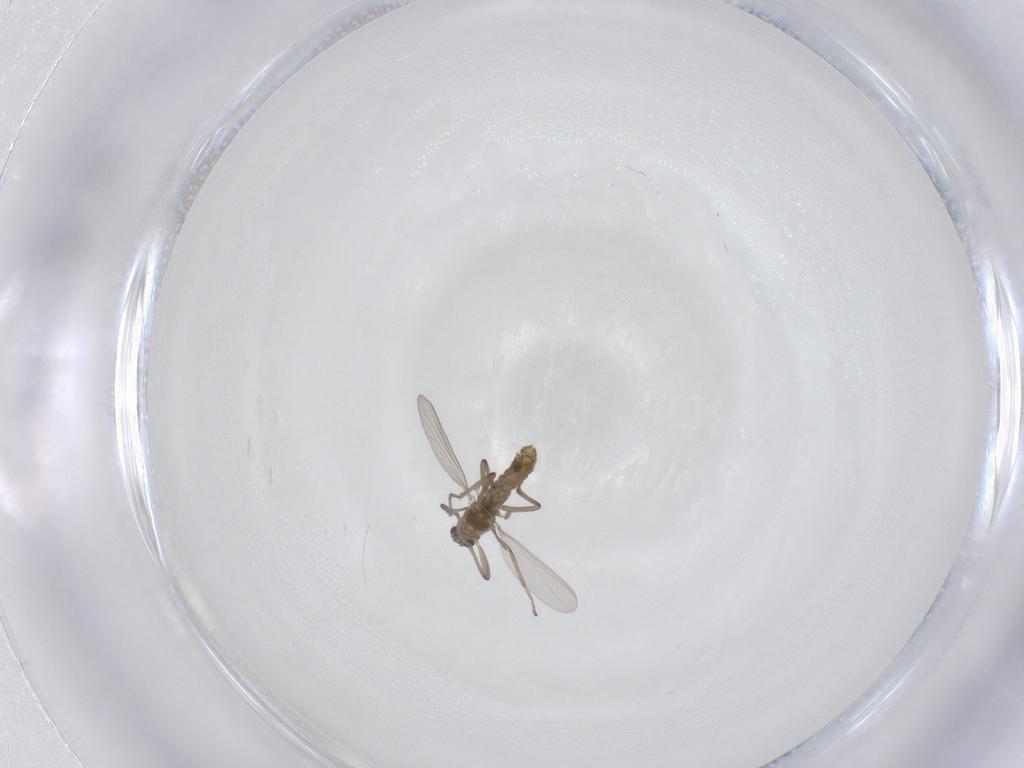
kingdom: Animalia
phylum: Arthropoda
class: Insecta
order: Diptera
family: Chironomidae
